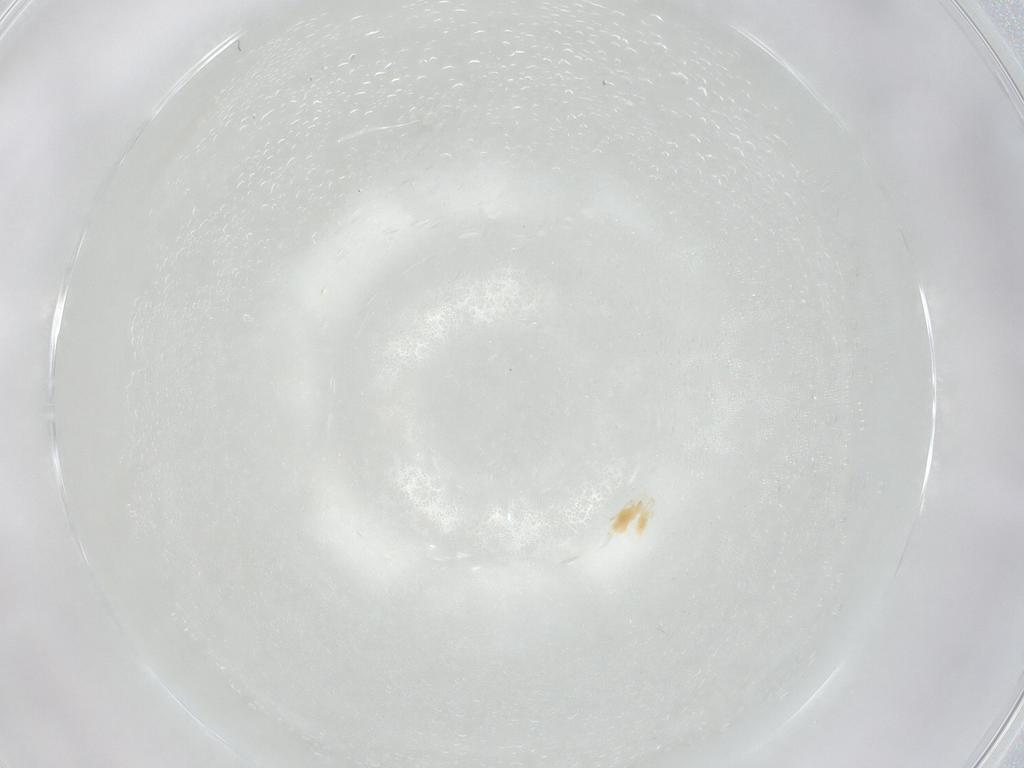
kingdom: Animalia
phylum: Arthropoda
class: Insecta
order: Lepidoptera
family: Adelidae
